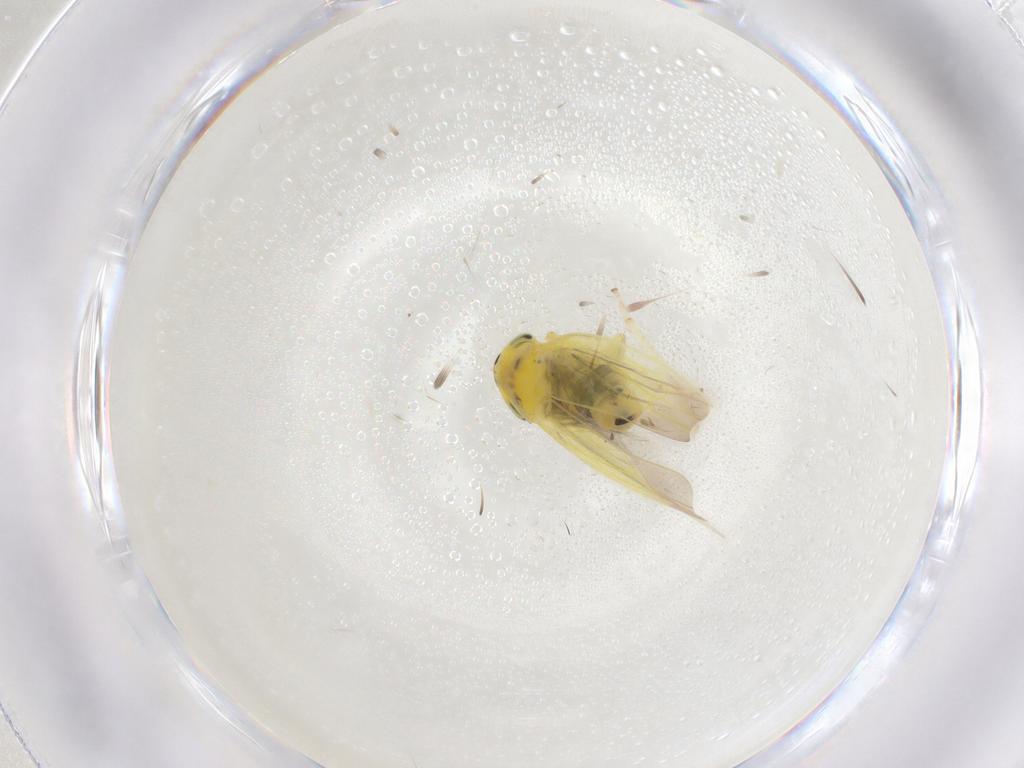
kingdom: Animalia
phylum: Arthropoda
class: Insecta
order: Hemiptera
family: Cicadellidae
